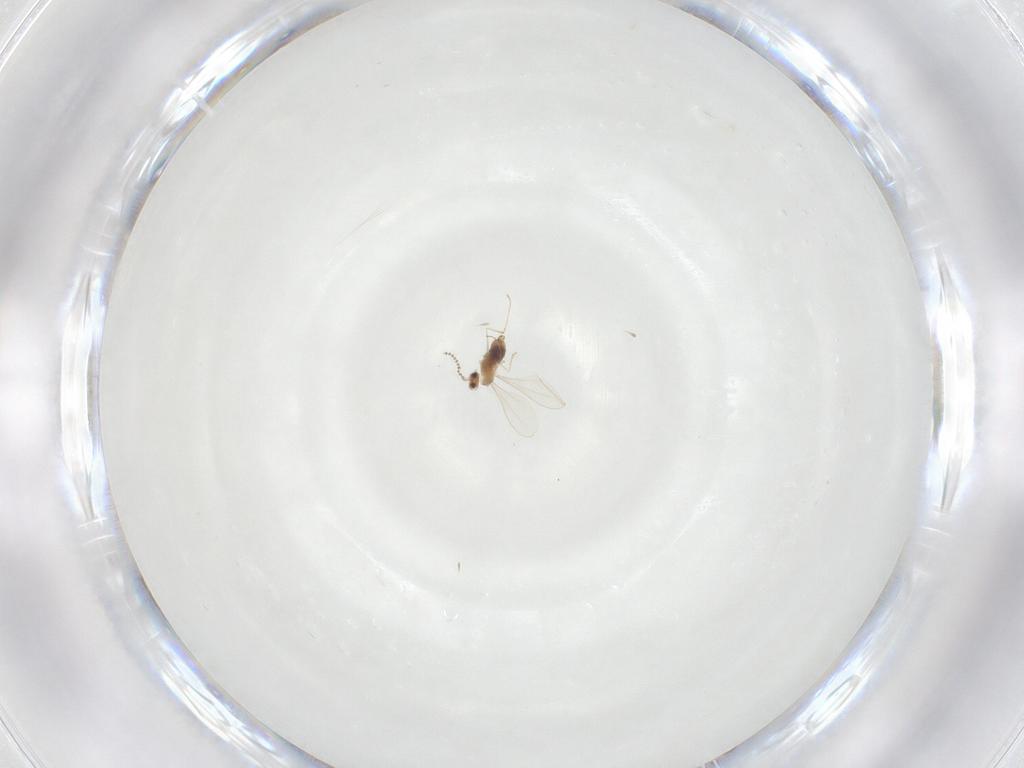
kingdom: Animalia
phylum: Arthropoda
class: Insecta
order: Diptera
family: Cecidomyiidae
